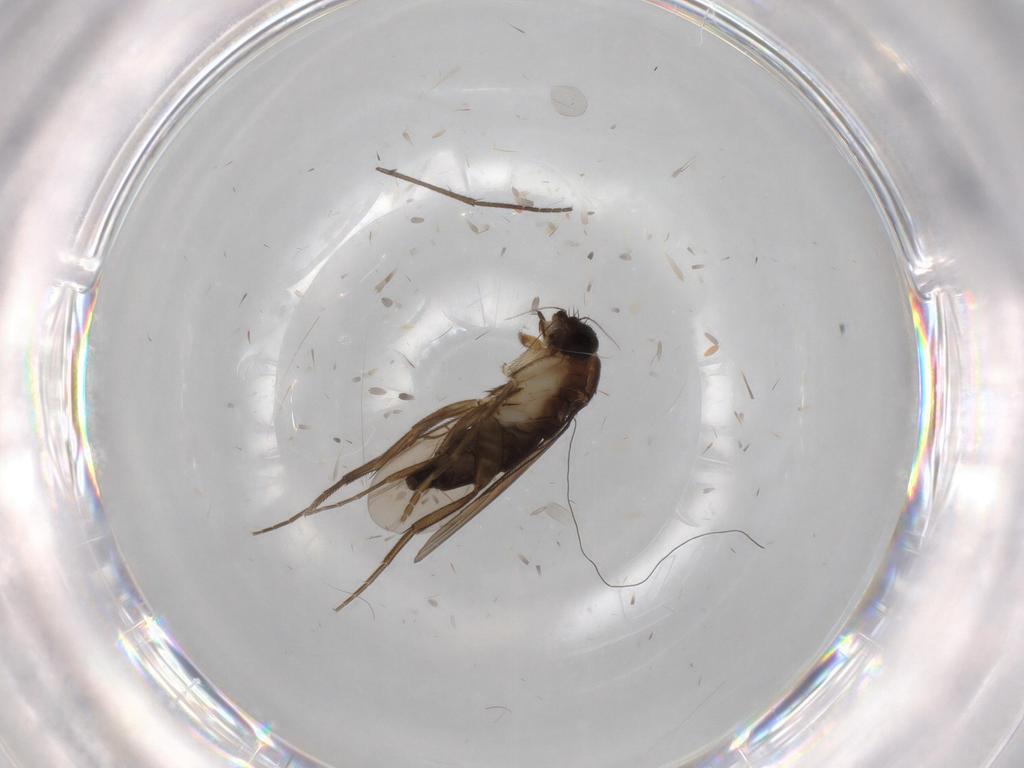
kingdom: Animalia
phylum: Arthropoda
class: Insecta
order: Diptera
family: Phoridae
